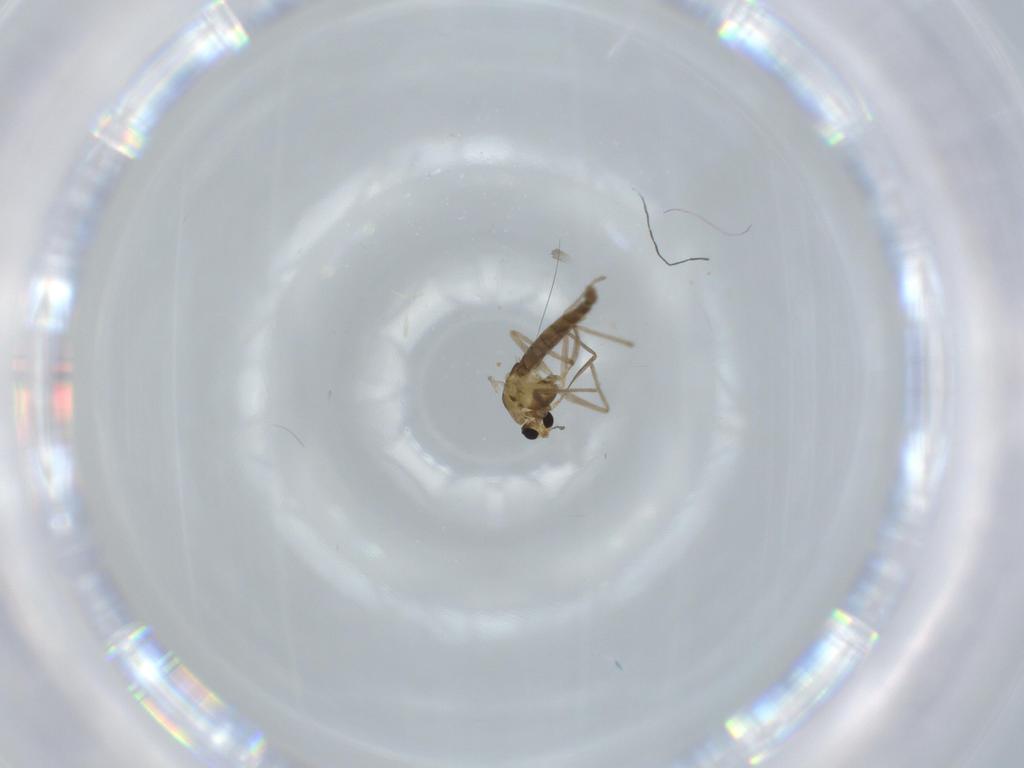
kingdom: Animalia
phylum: Arthropoda
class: Insecta
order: Diptera
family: Chironomidae
